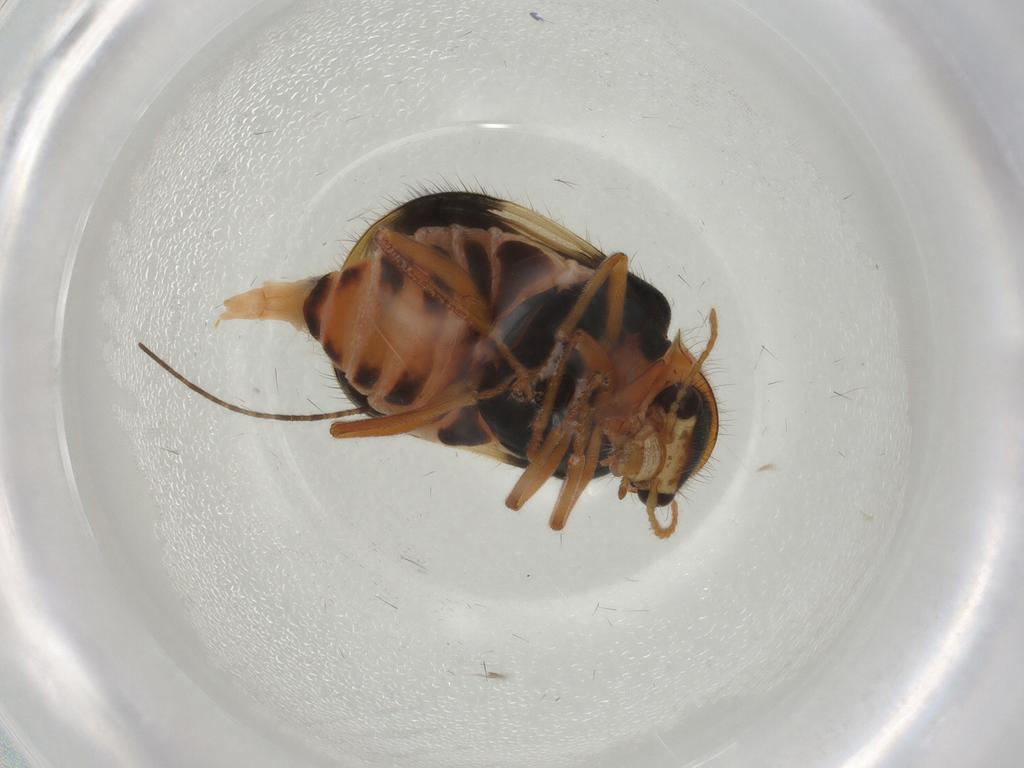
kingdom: Animalia
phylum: Arthropoda
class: Insecta
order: Coleoptera
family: Melyridae
